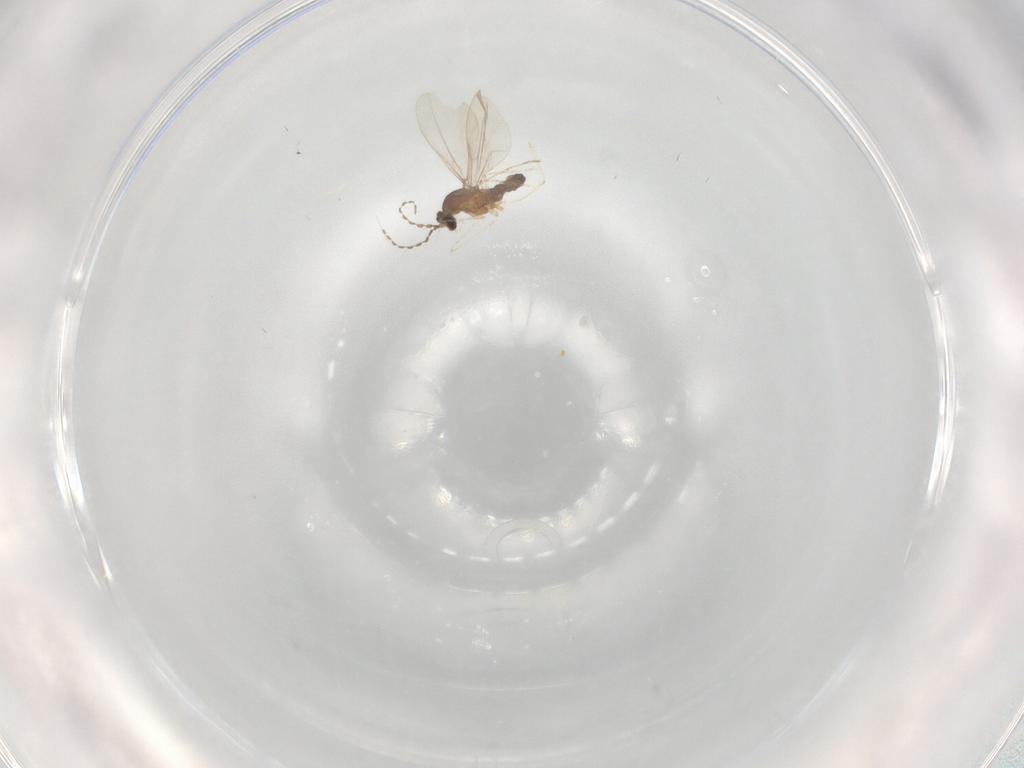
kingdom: Animalia
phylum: Arthropoda
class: Insecta
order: Diptera
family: Cecidomyiidae
